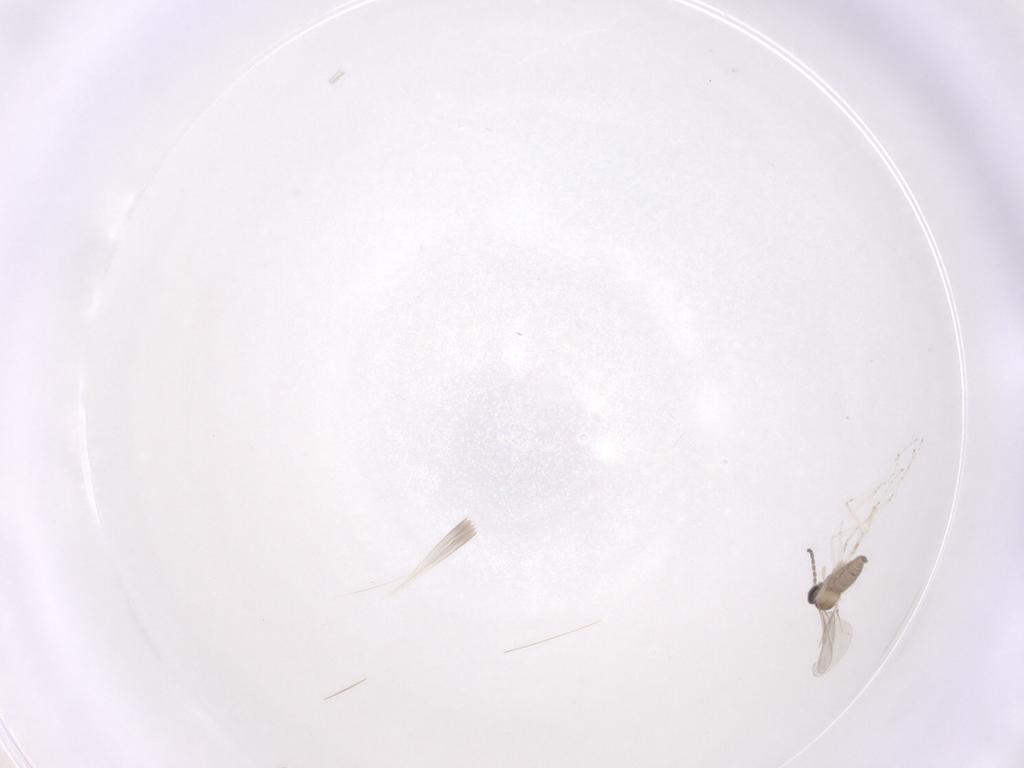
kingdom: Animalia
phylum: Arthropoda
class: Insecta
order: Diptera
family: Cecidomyiidae
